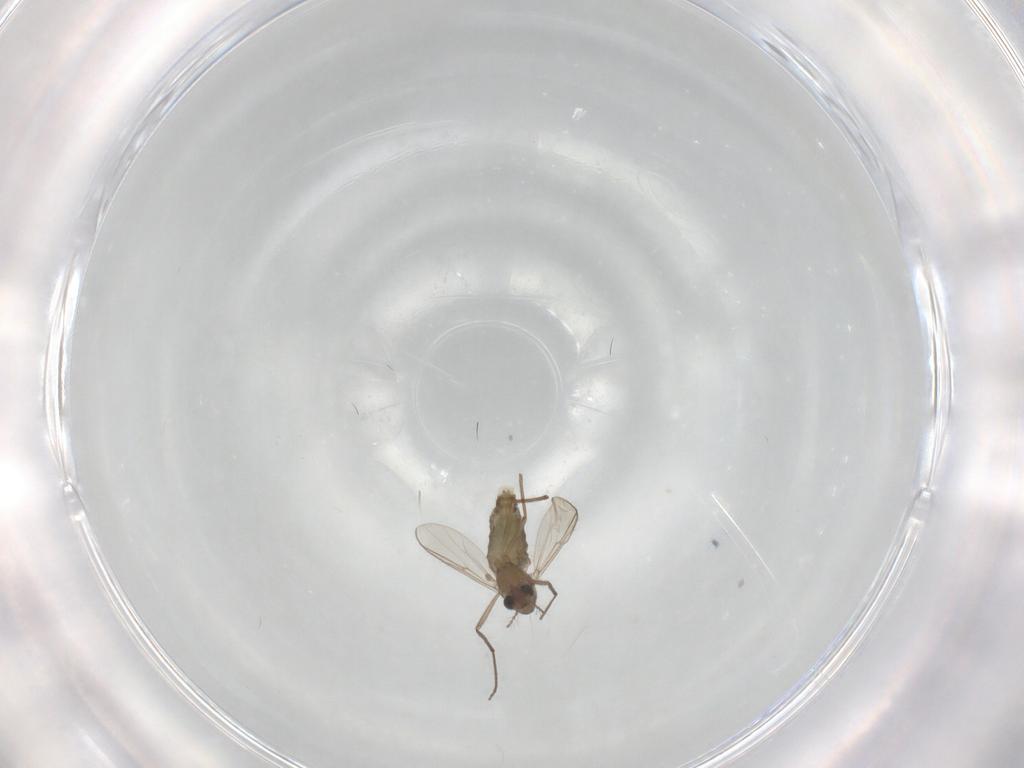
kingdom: Animalia
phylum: Arthropoda
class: Insecta
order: Diptera
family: Chironomidae
